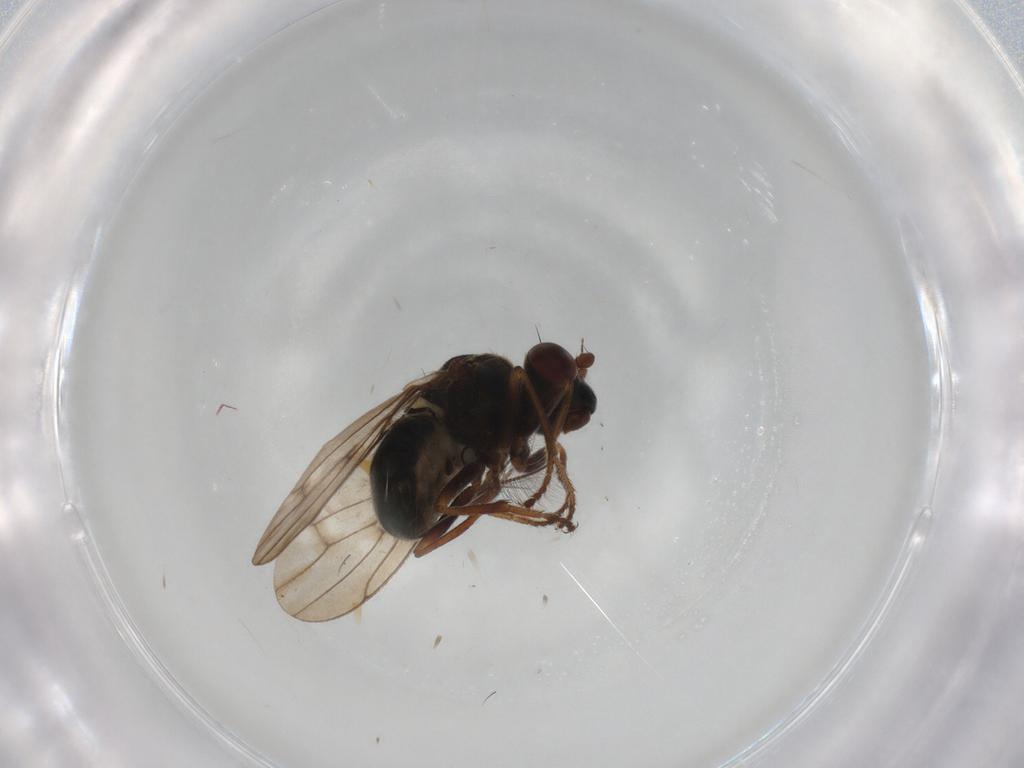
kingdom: Animalia
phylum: Arthropoda
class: Insecta
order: Diptera
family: Ephydridae
